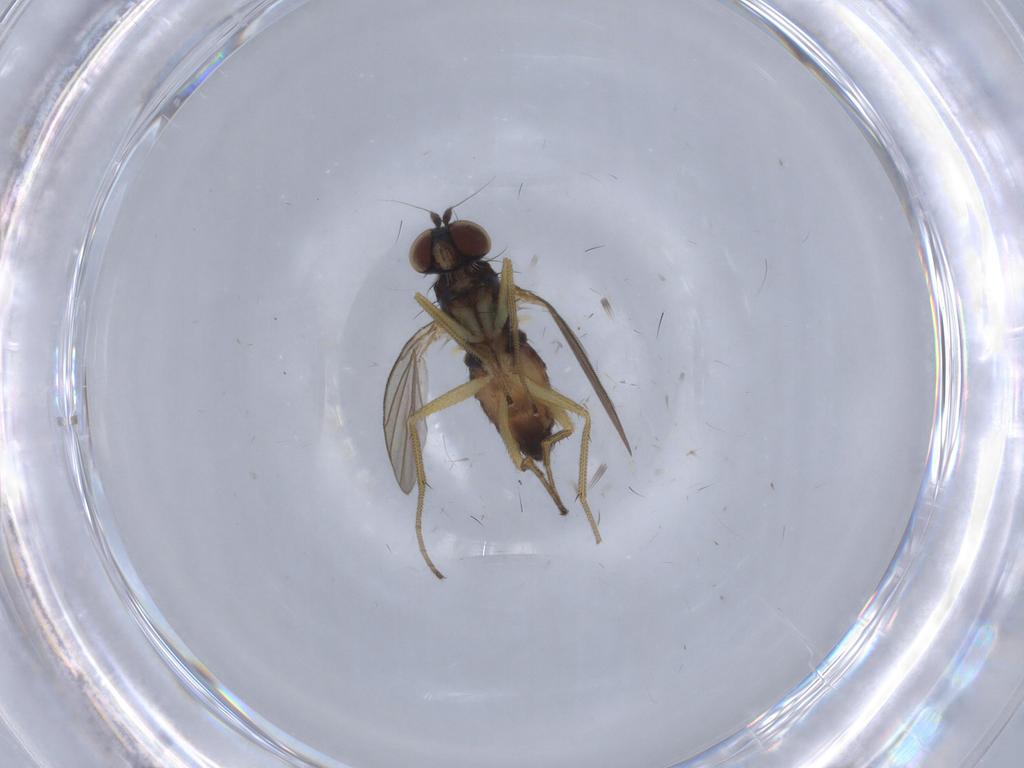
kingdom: Animalia
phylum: Arthropoda
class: Insecta
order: Diptera
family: Dolichopodidae
